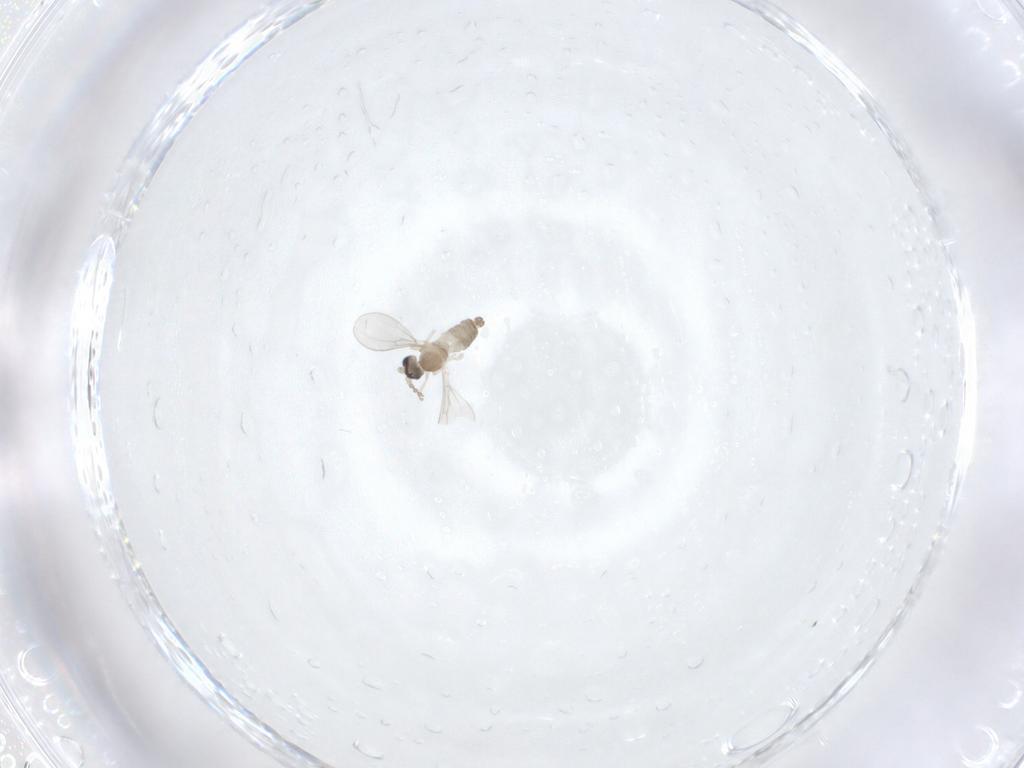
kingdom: Animalia
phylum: Arthropoda
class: Insecta
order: Diptera
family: Cecidomyiidae
